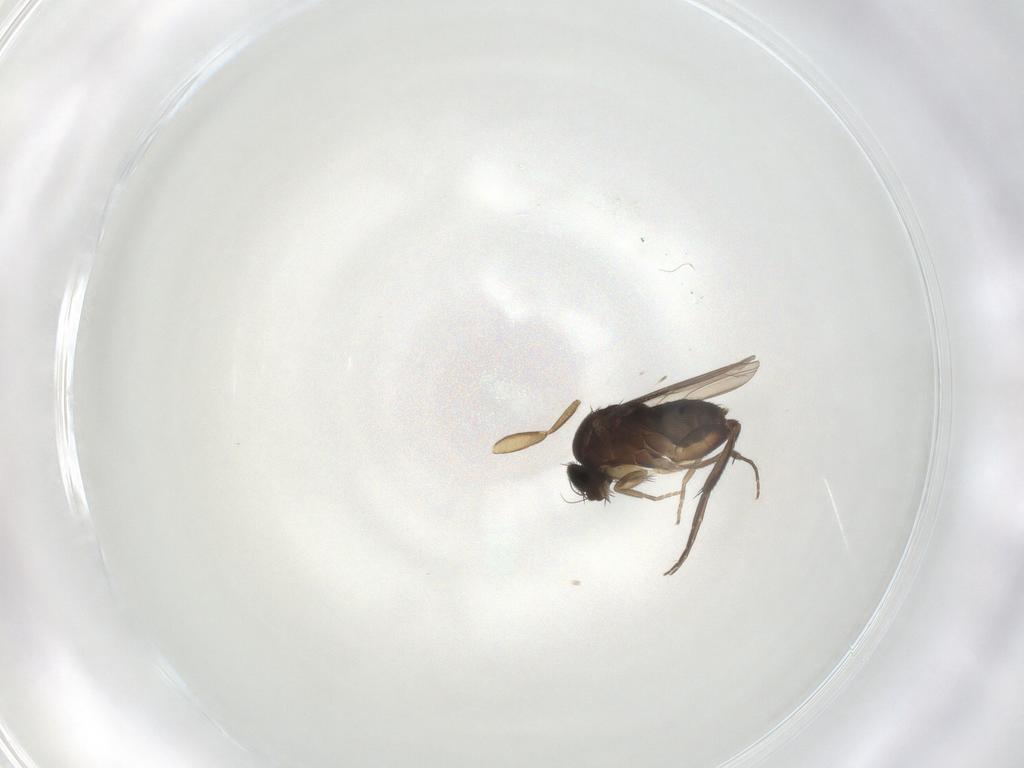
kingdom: Animalia
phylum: Arthropoda
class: Insecta
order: Diptera
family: Phoridae
